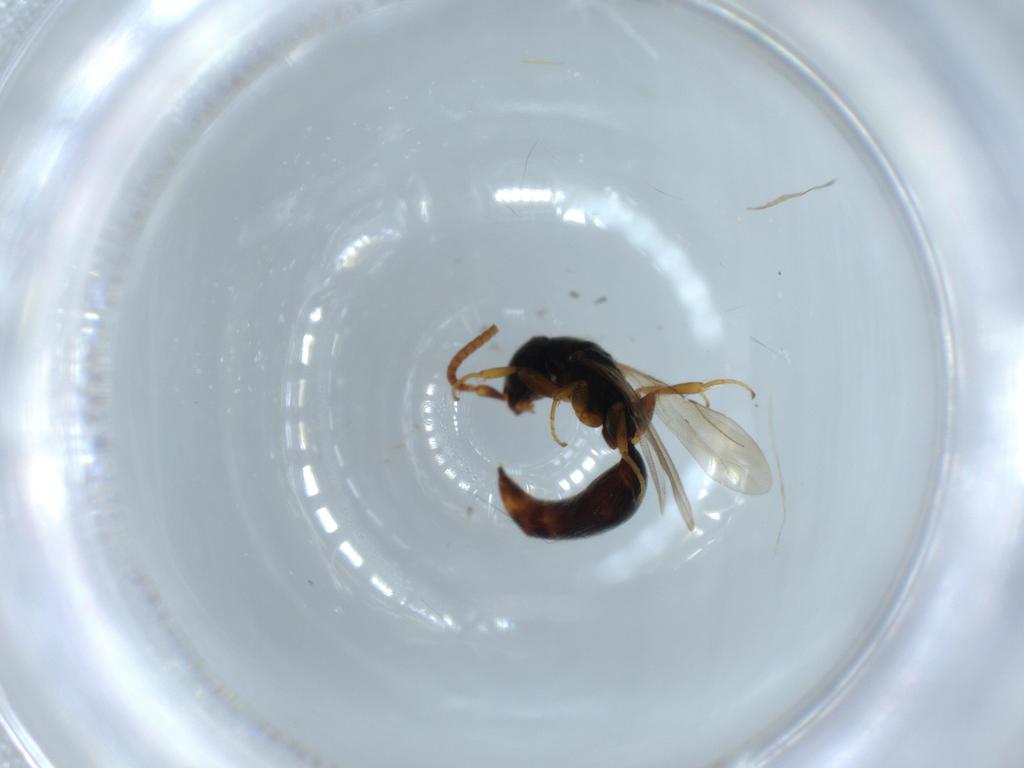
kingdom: Animalia
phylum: Arthropoda
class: Insecta
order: Hymenoptera
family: Bethylidae
